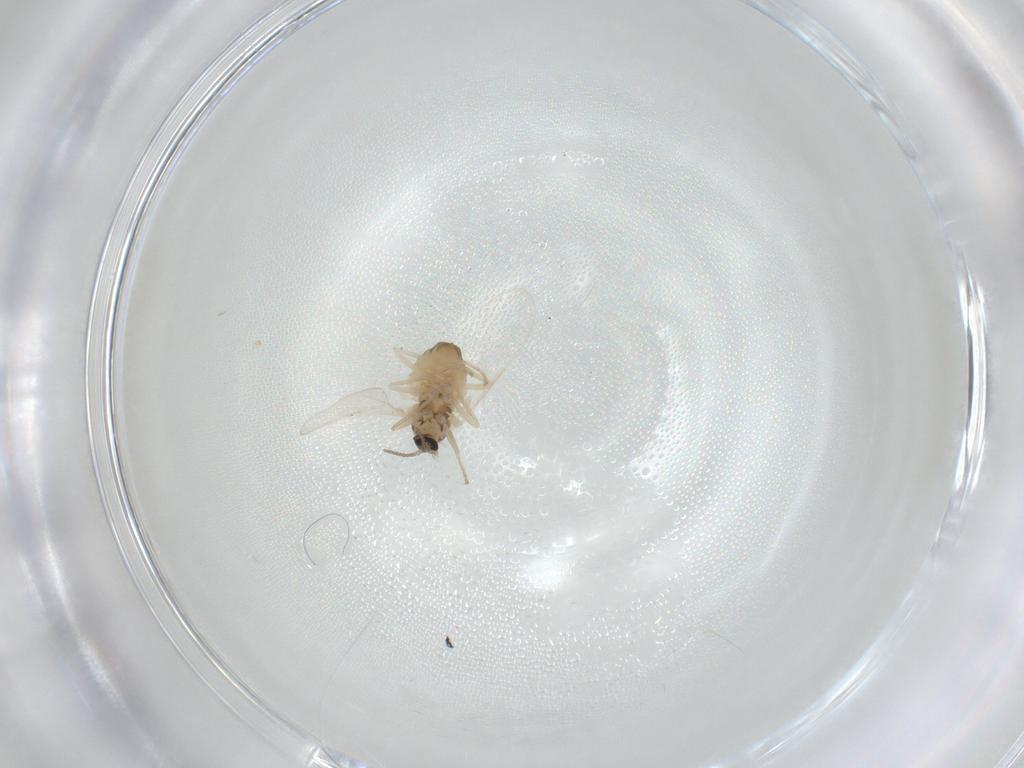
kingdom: Animalia
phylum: Arthropoda
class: Insecta
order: Diptera
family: Cecidomyiidae
